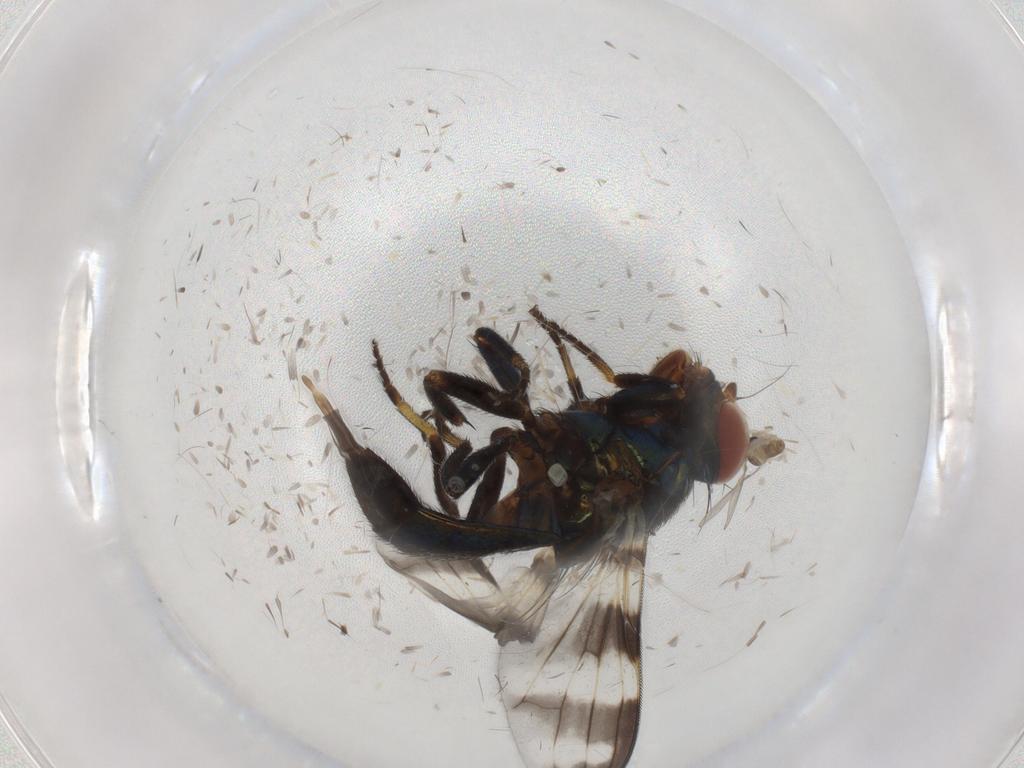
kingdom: Animalia
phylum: Arthropoda
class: Insecta
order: Diptera
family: Ulidiidae
